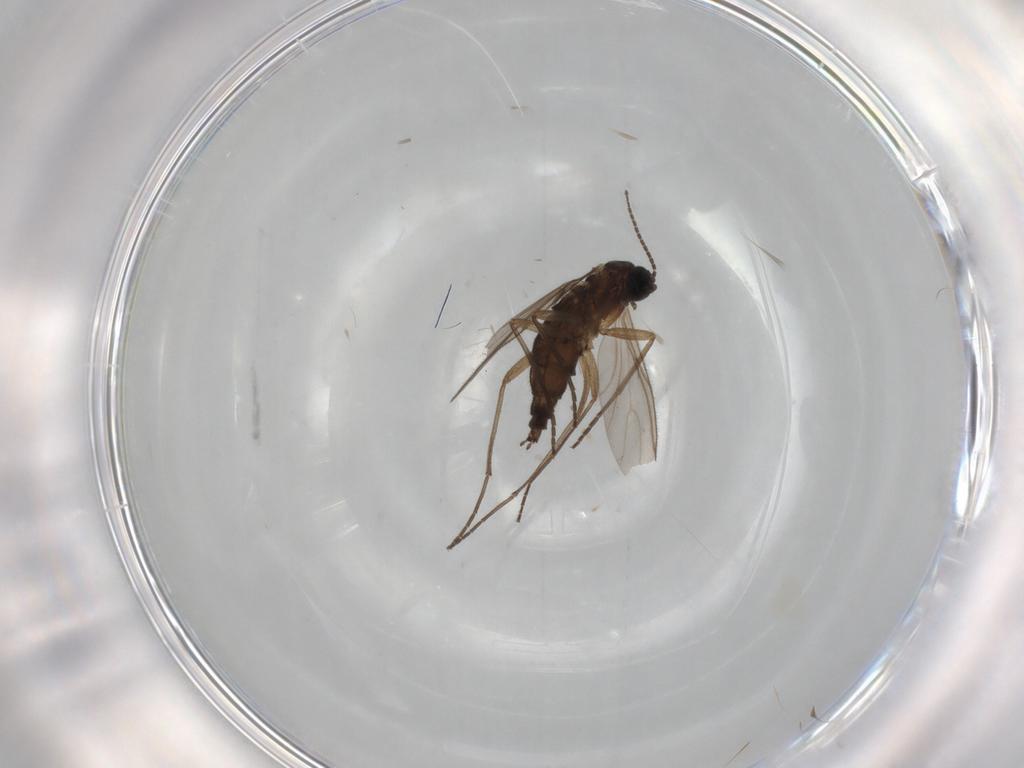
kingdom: Animalia
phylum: Arthropoda
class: Insecta
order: Diptera
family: Sciaridae
